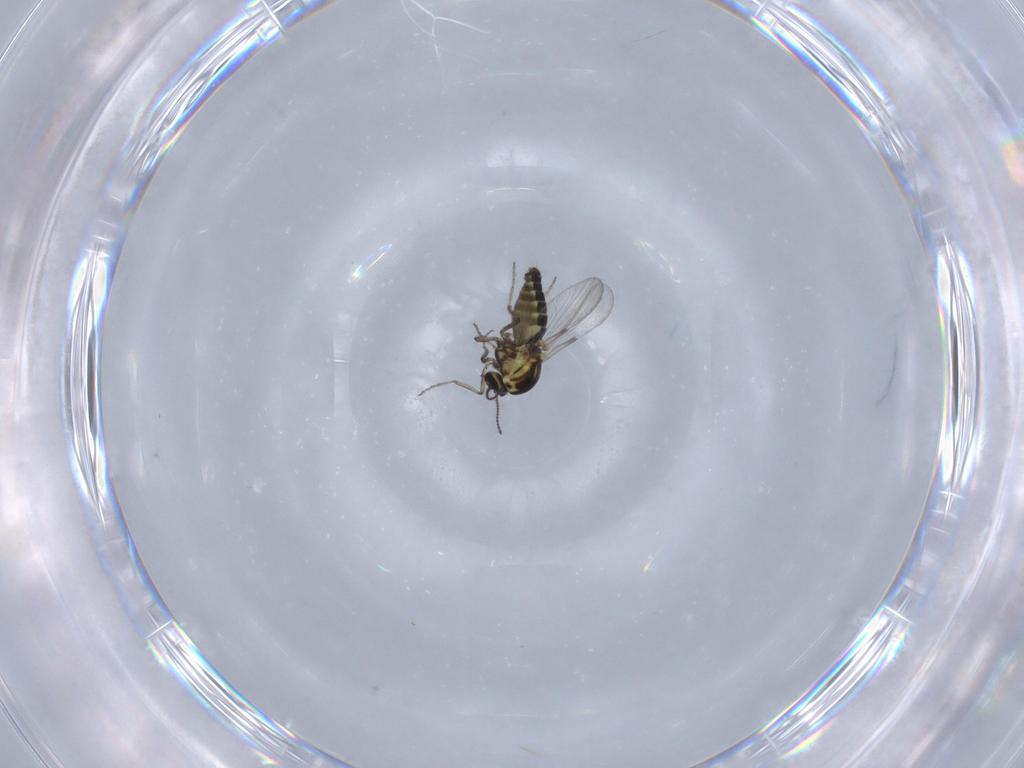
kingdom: Animalia
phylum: Arthropoda
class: Insecta
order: Diptera
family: Ceratopogonidae
